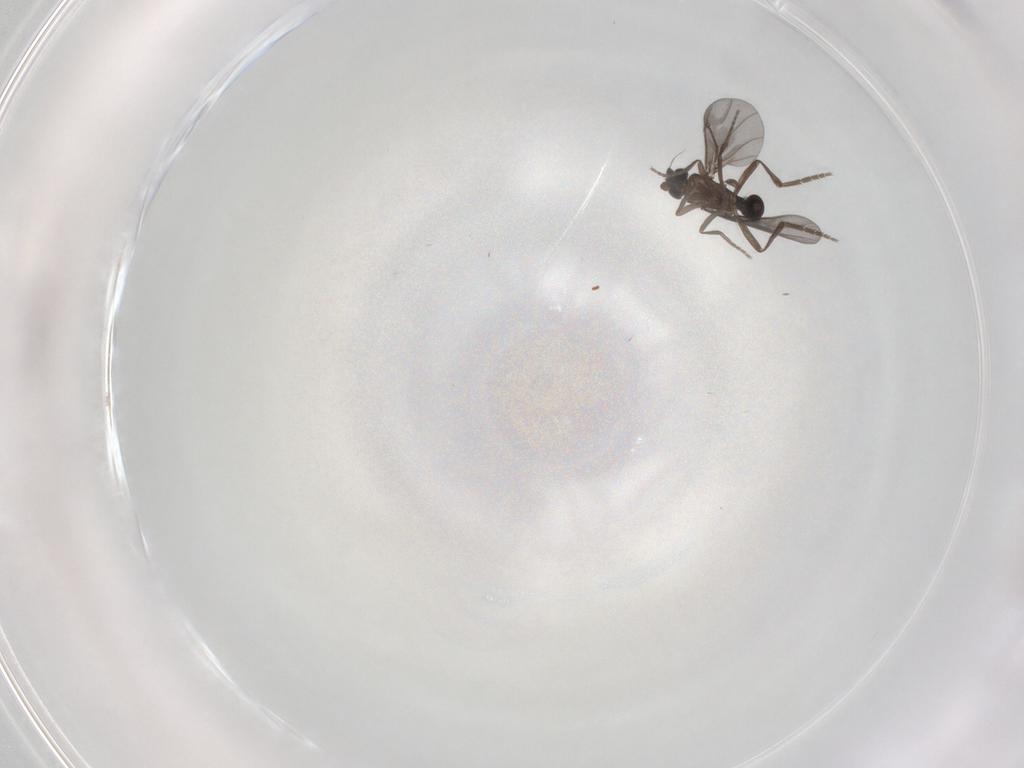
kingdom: Animalia
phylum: Arthropoda
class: Insecta
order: Diptera
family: Phoridae
